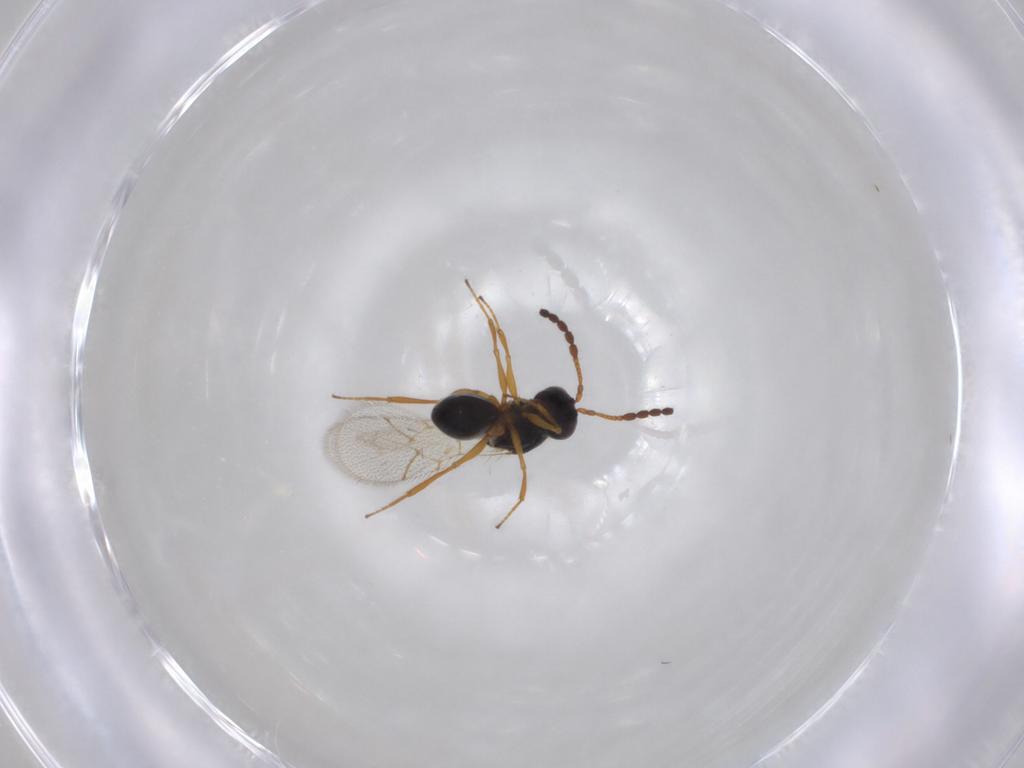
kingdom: Animalia
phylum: Arthropoda
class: Insecta
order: Hymenoptera
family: Figitidae
